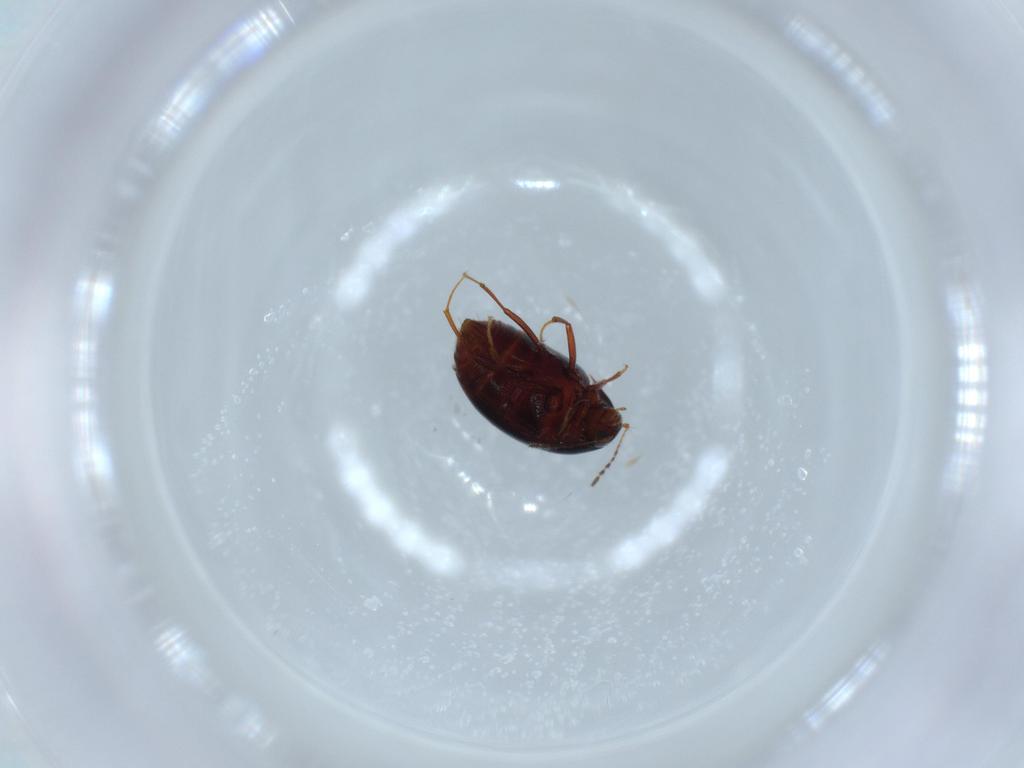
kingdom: Animalia
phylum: Arthropoda
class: Insecta
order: Coleoptera
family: Staphylinidae
